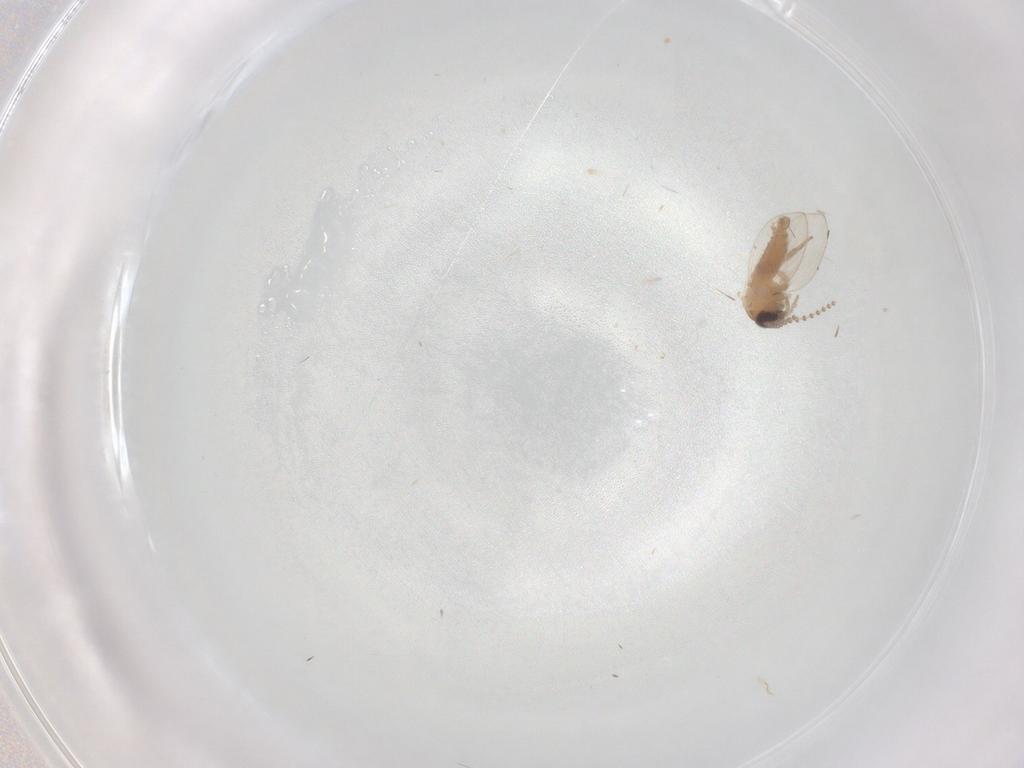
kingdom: Animalia
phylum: Arthropoda
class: Insecta
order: Diptera
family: Psychodidae
